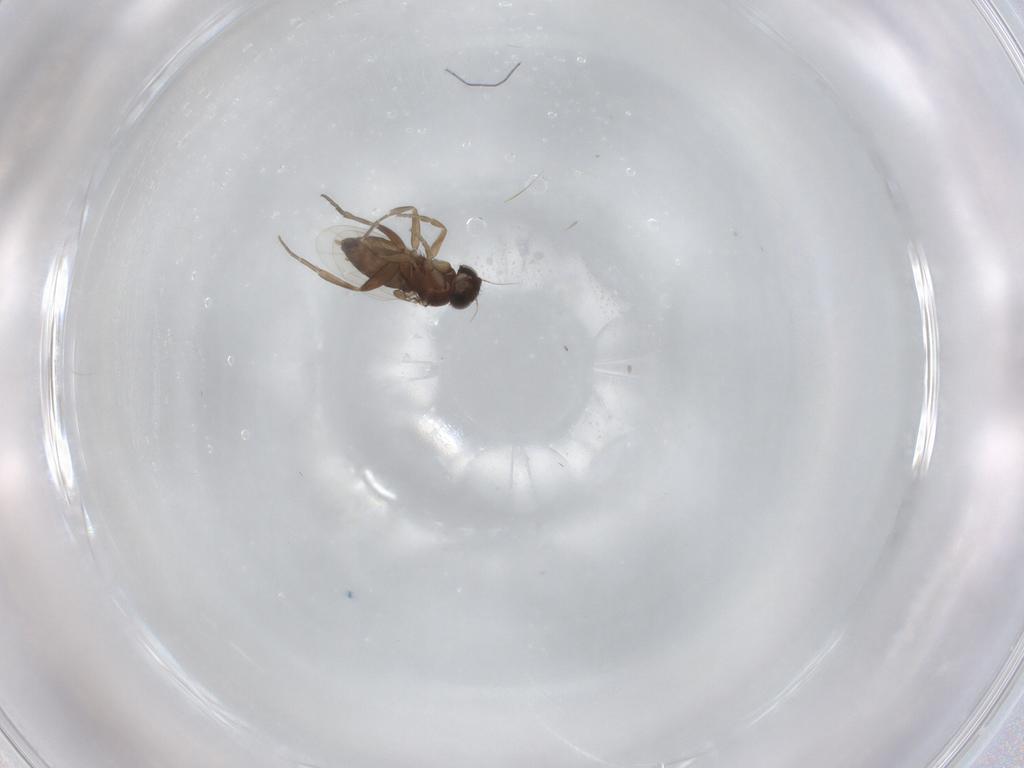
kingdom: Animalia
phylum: Arthropoda
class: Insecta
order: Diptera
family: Phoridae
